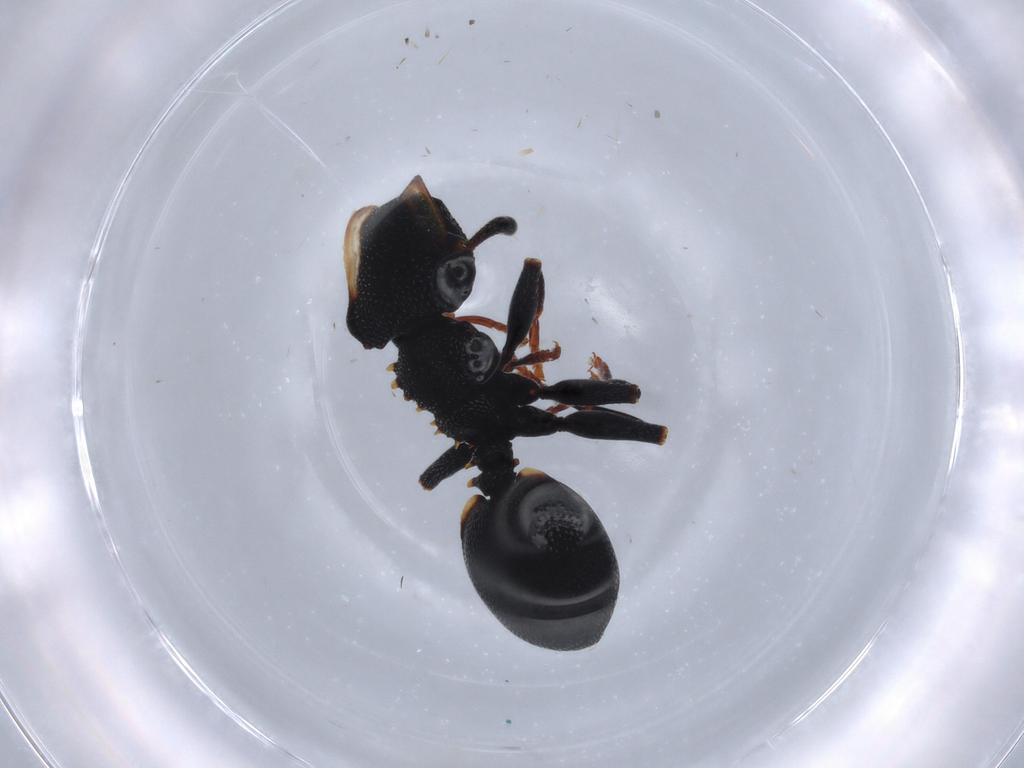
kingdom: Animalia
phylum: Arthropoda
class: Insecta
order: Hymenoptera
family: Formicidae
